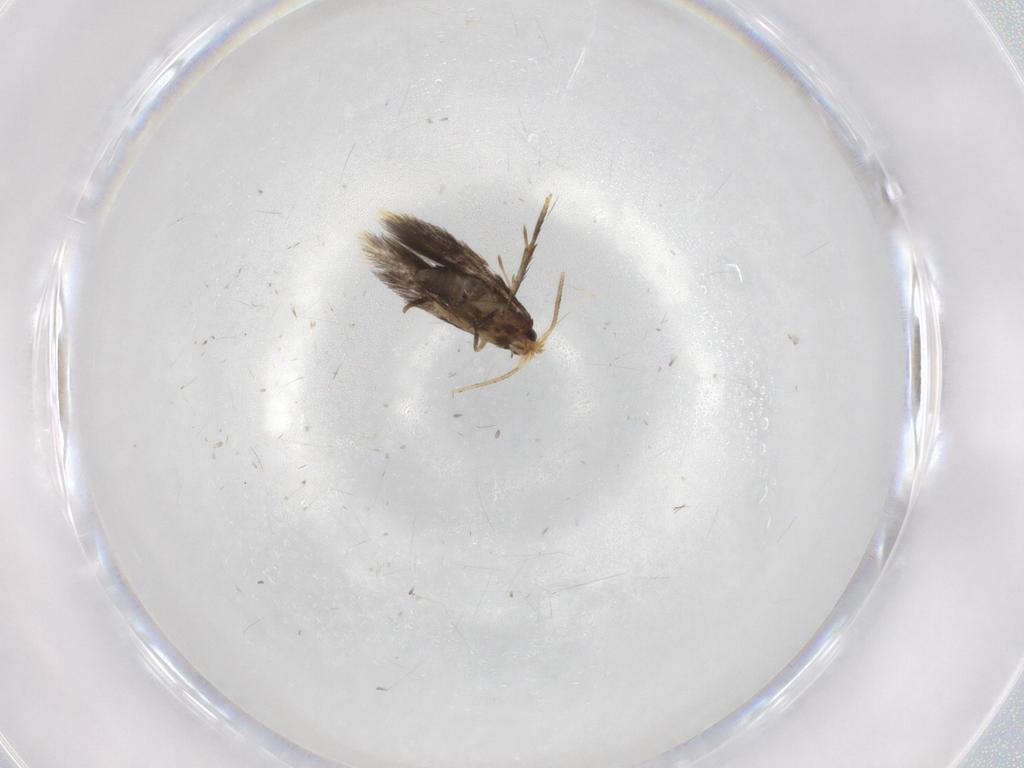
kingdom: Animalia
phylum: Arthropoda
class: Insecta
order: Lepidoptera
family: Copromorphidae
